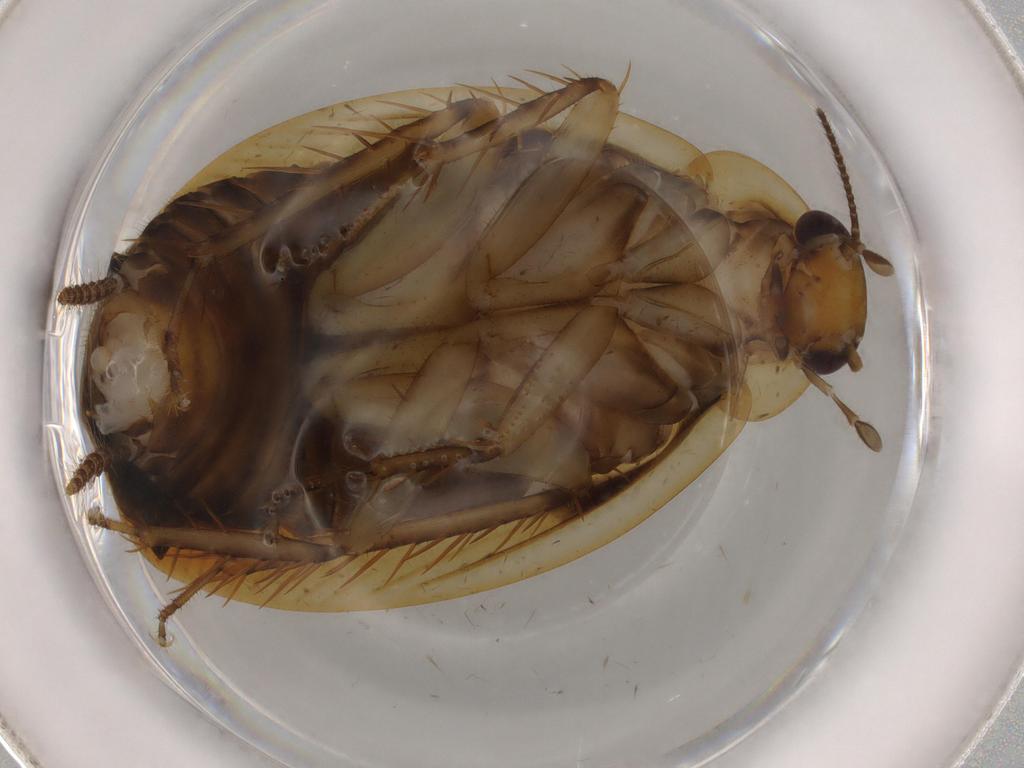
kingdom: Animalia
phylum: Arthropoda
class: Insecta
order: Blattodea
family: Ectobiidae
